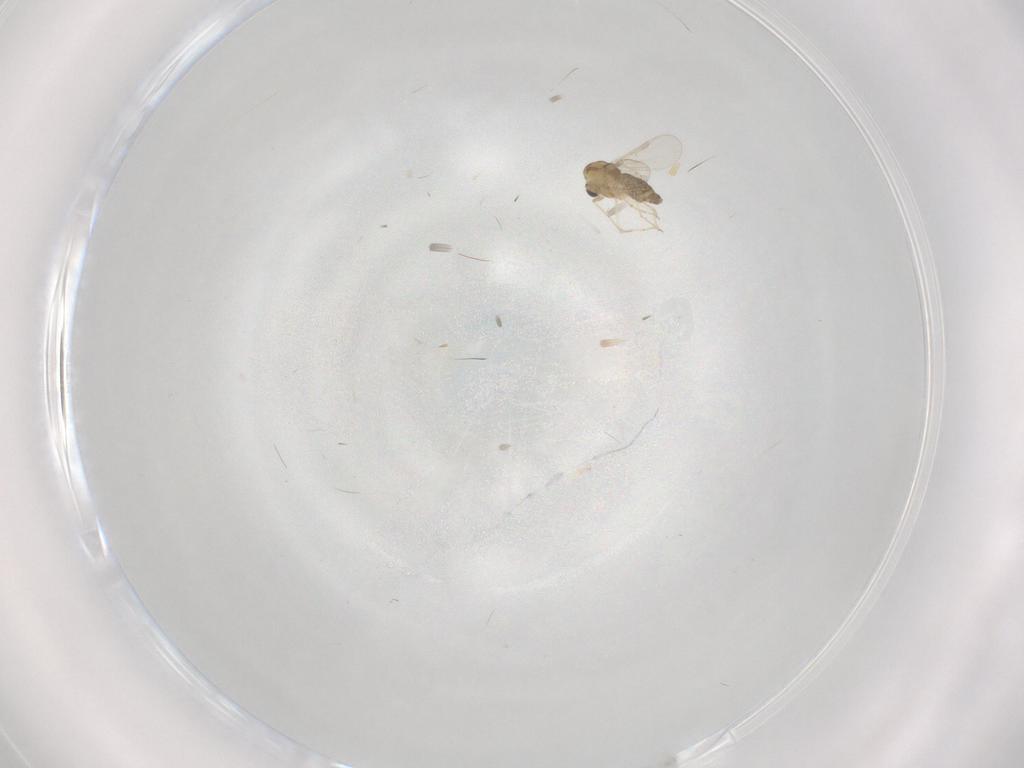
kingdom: Animalia
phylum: Arthropoda
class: Insecta
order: Diptera
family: Chironomidae
